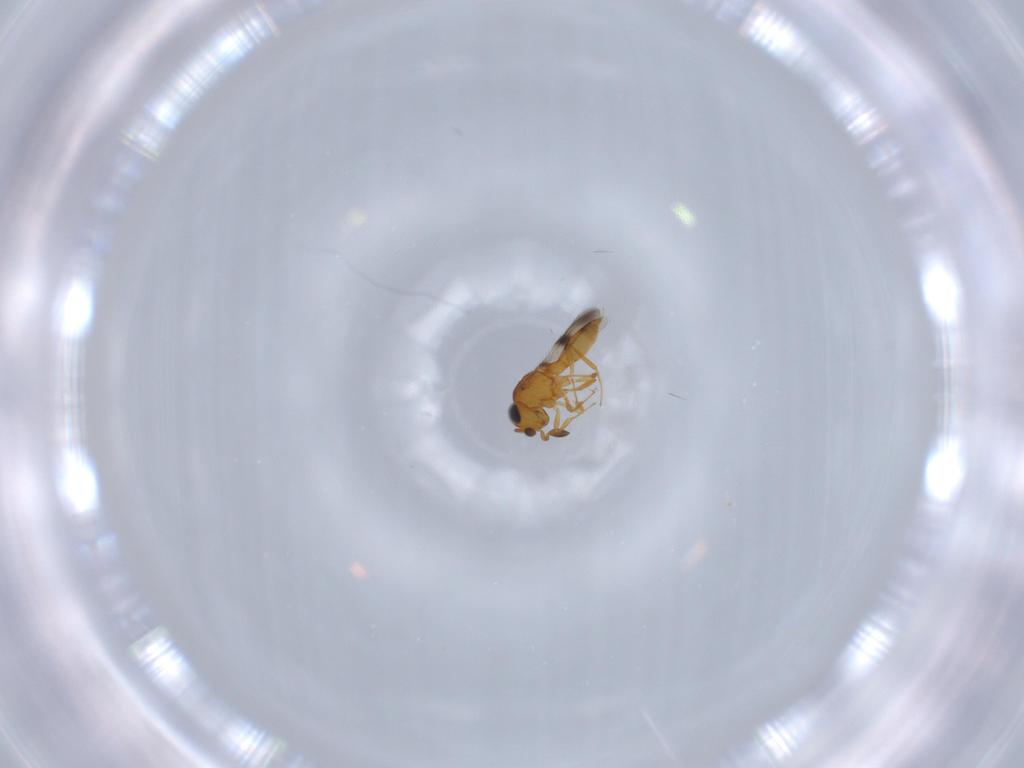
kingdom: Animalia
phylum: Arthropoda
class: Insecta
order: Hymenoptera
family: Scelionidae
